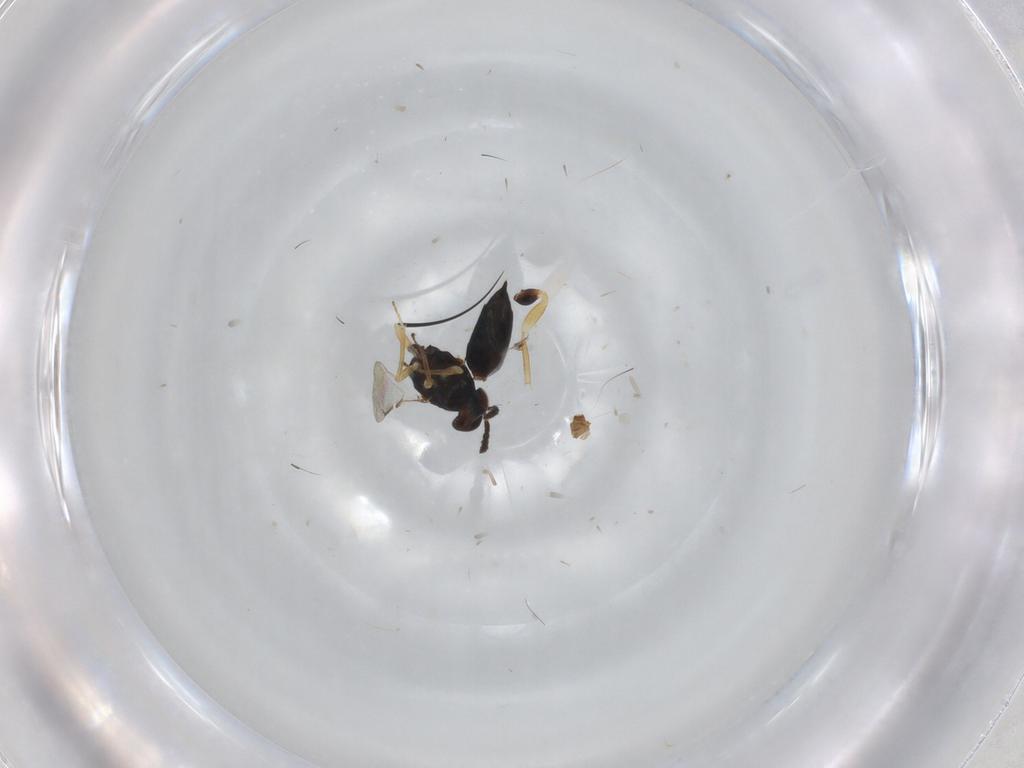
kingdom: Animalia
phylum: Arthropoda
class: Insecta
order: Hymenoptera
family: Eulophidae
